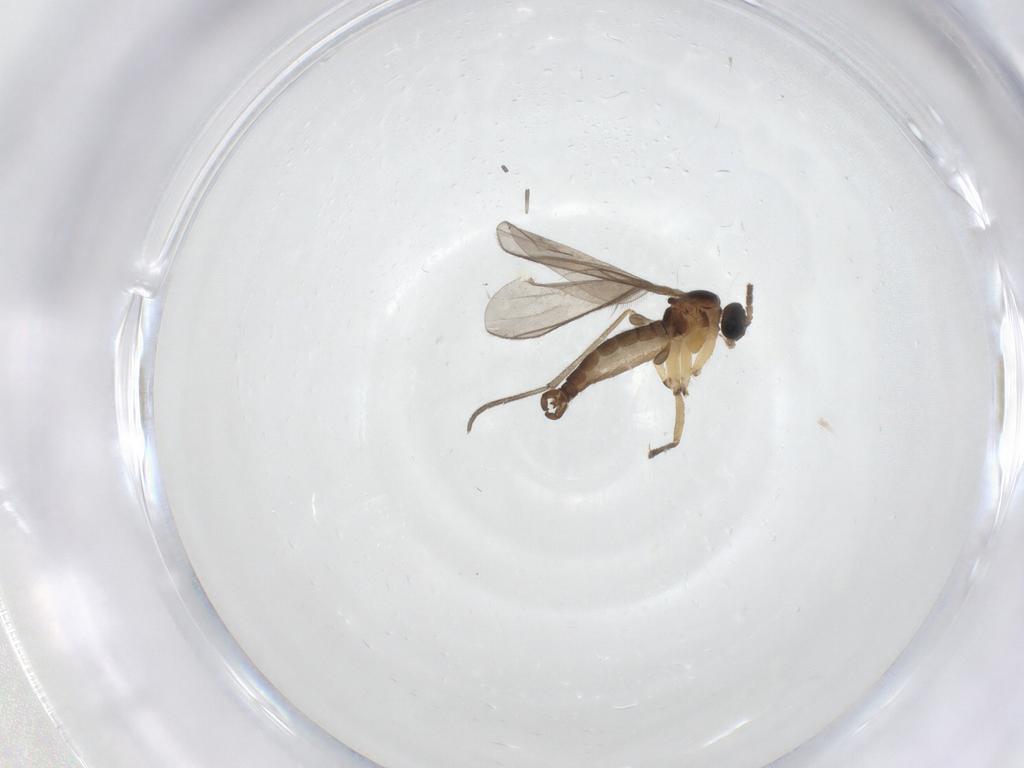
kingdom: Animalia
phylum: Arthropoda
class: Insecta
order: Diptera
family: Sciaridae
